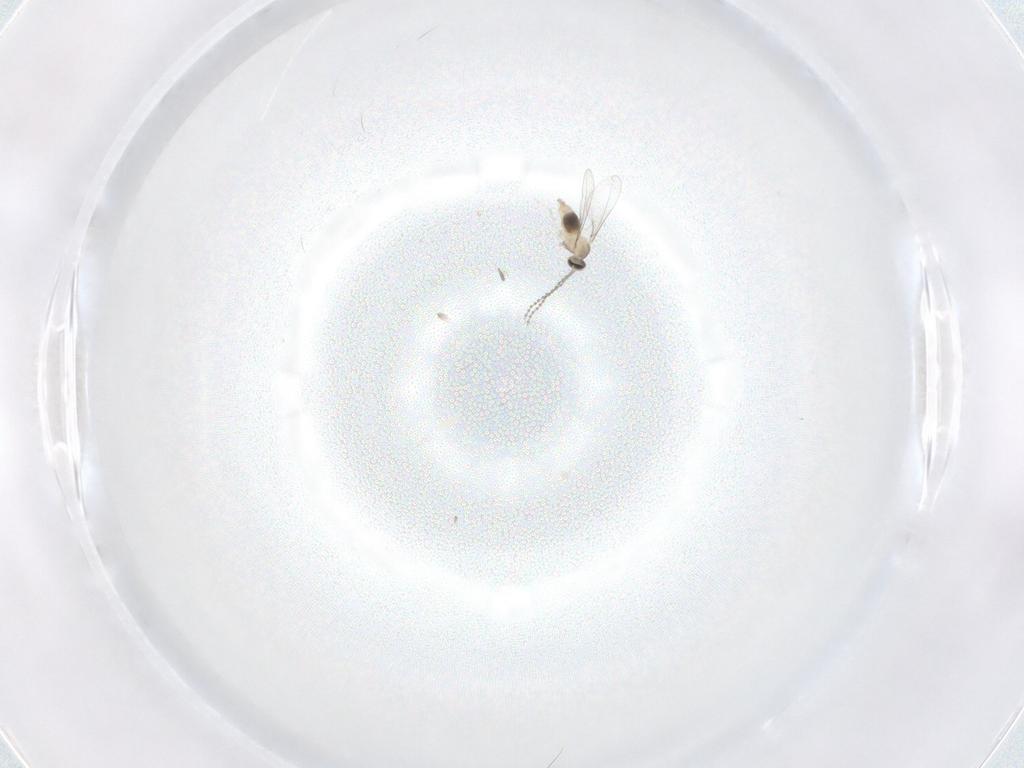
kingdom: Animalia
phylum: Arthropoda
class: Insecta
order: Diptera
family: Cecidomyiidae
